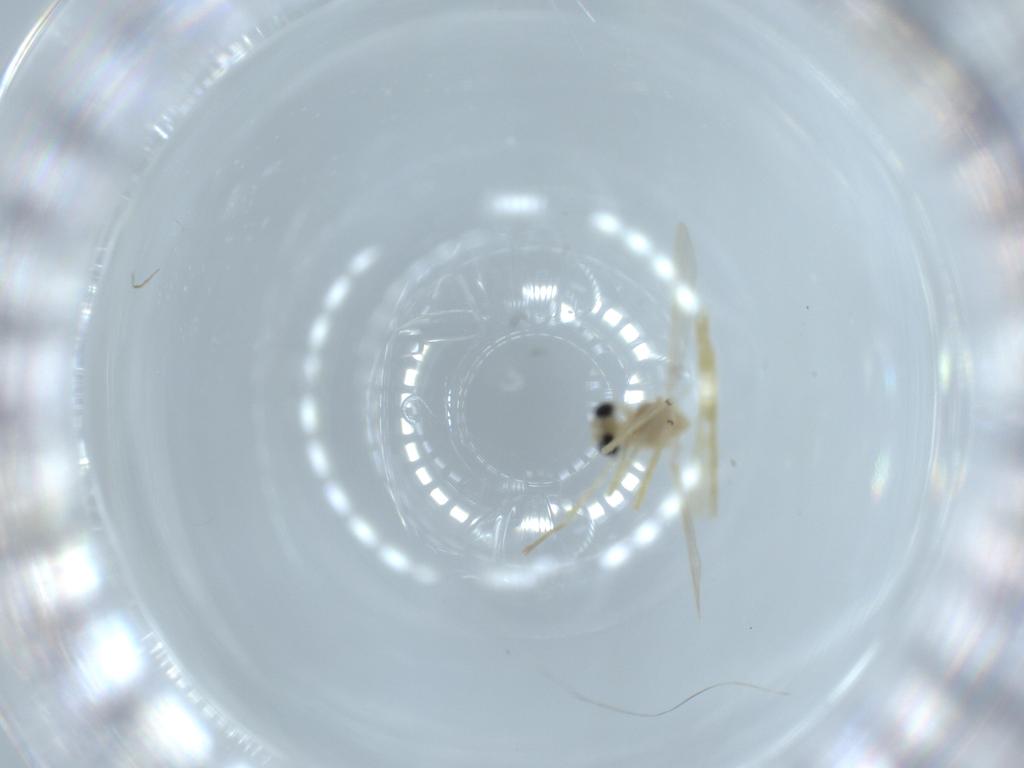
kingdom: Animalia
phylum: Arthropoda
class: Insecta
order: Diptera
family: Chironomidae
